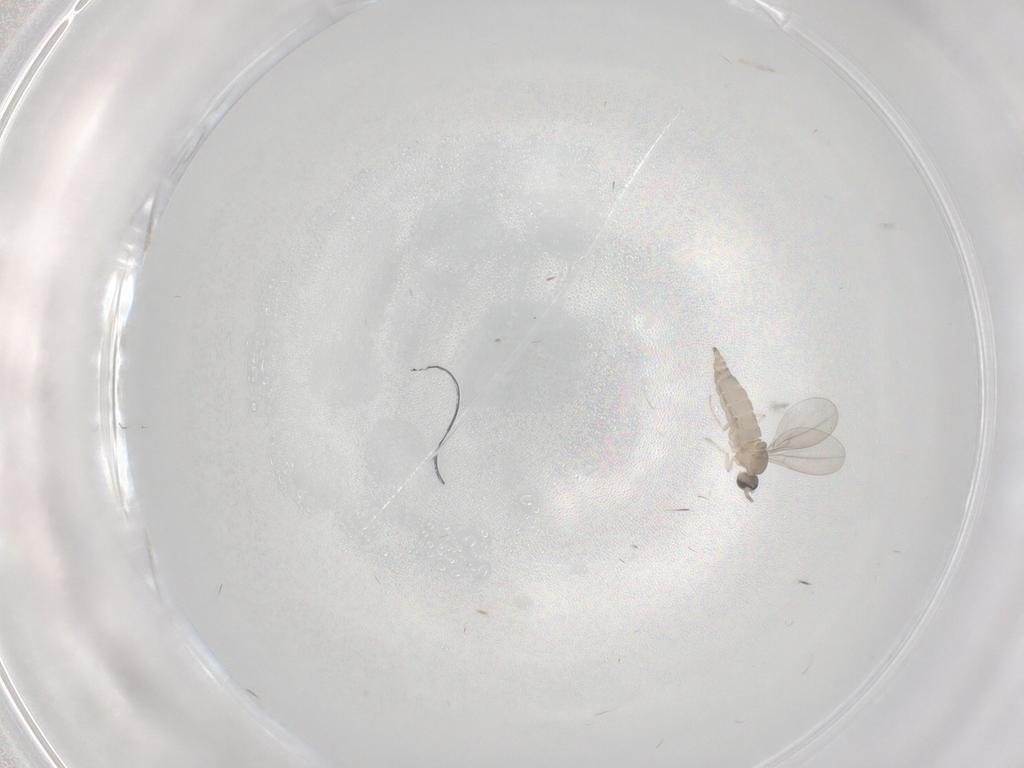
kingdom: Animalia
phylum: Arthropoda
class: Insecta
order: Diptera
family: Cecidomyiidae
